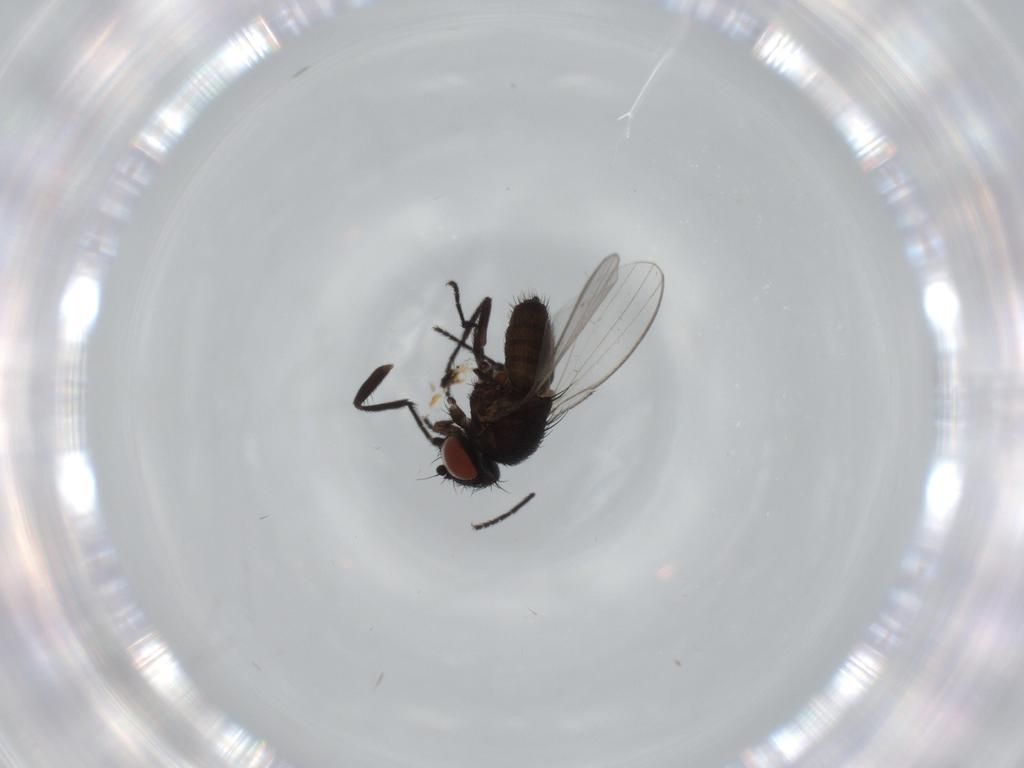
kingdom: Animalia
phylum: Arthropoda
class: Insecta
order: Diptera
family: Milichiidae
